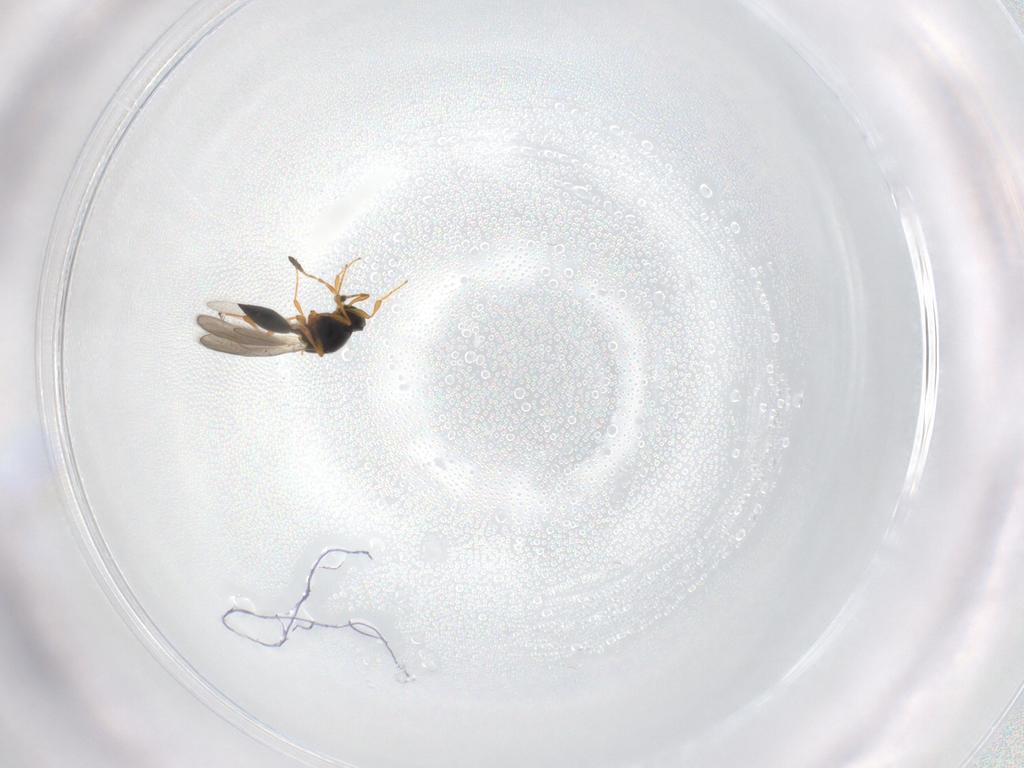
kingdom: Animalia
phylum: Arthropoda
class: Insecta
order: Hymenoptera
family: Platygastridae
